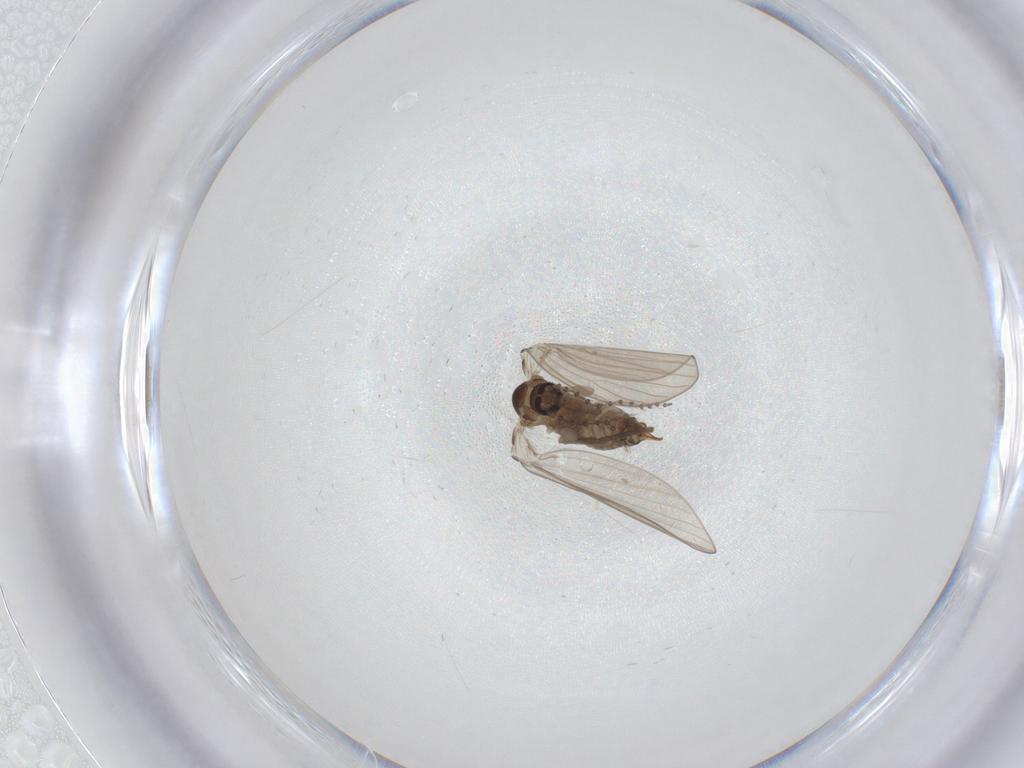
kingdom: Animalia
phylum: Arthropoda
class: Insecta
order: Diptera
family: Psychodidae
